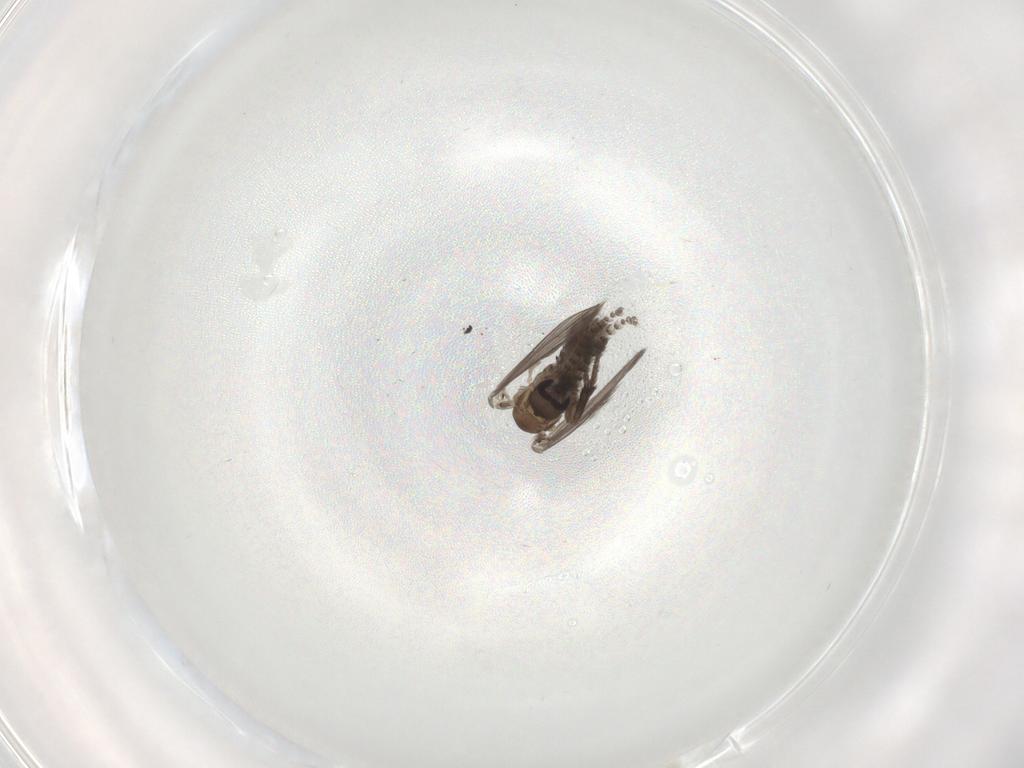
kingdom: Animalia
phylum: Arthropoda
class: Insecta
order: Diptera
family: Psychodidae
